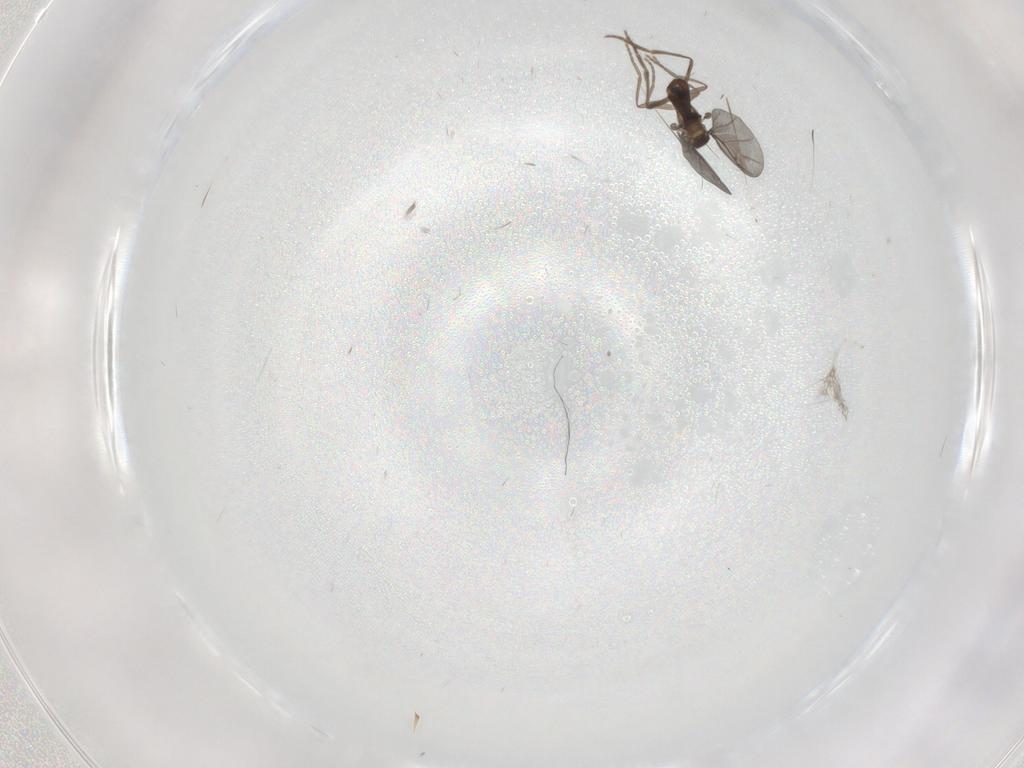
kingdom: Animalia
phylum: Arthropoda
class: Insecta
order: Diptera
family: Phoridae
